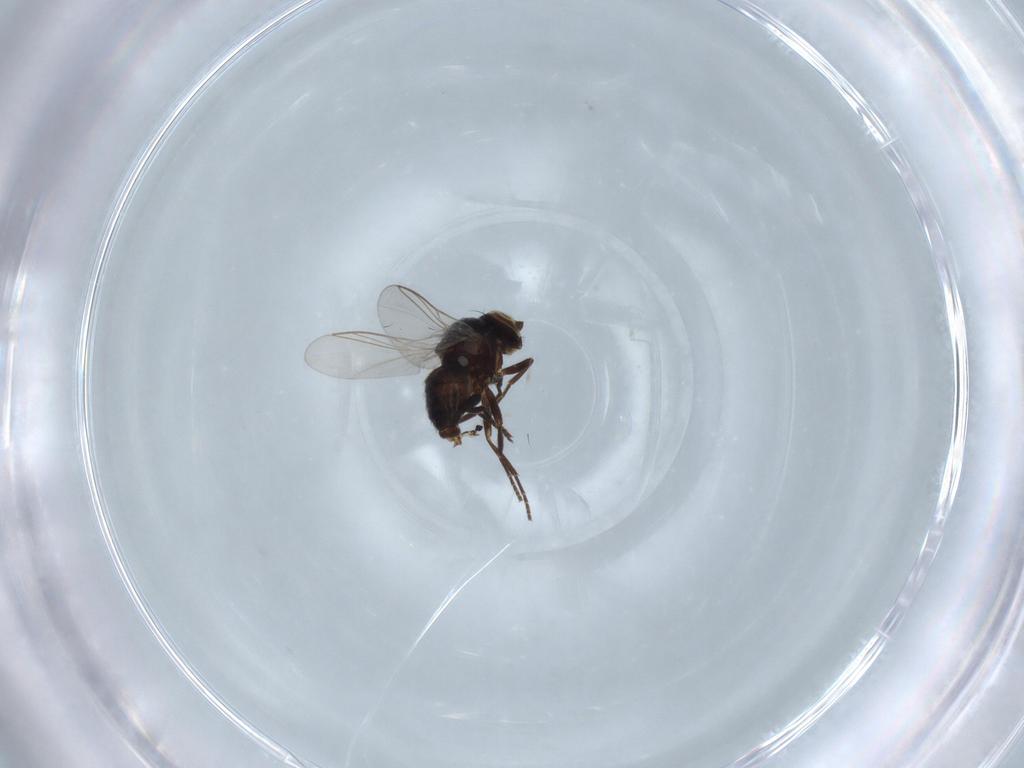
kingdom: Animalia
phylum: Arthropoda
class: Insecta
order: Diptera
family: Agromyzidae
